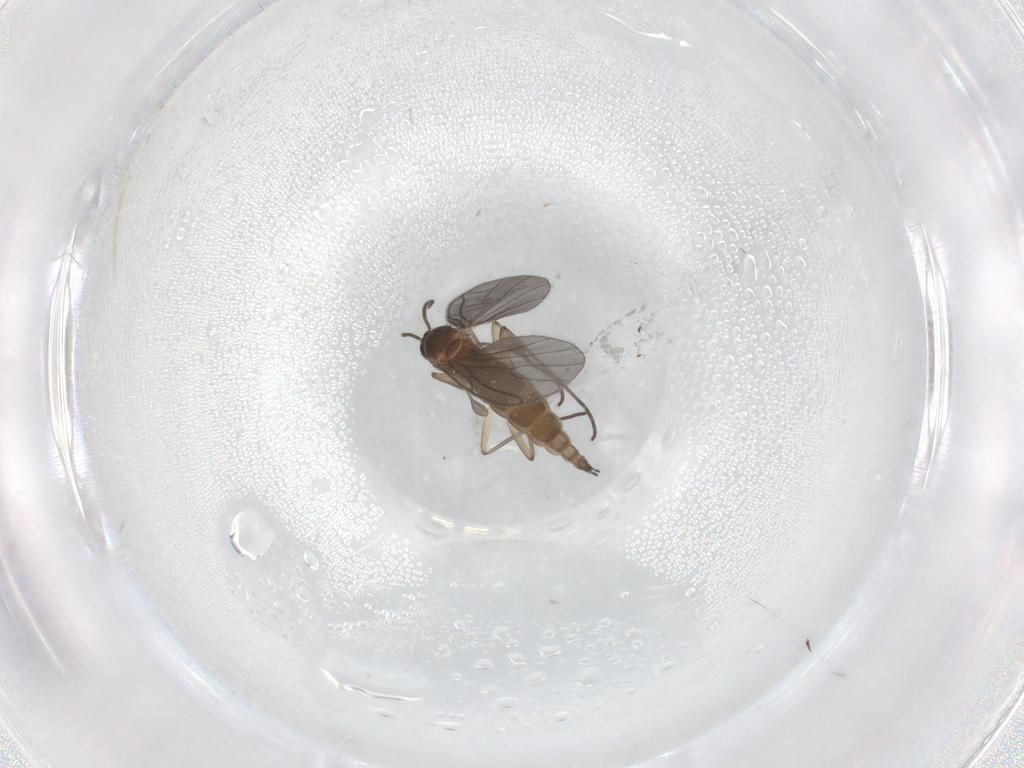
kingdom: Animalia
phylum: Arthropoda
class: Insecta
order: Diptera
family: Sciaridae
